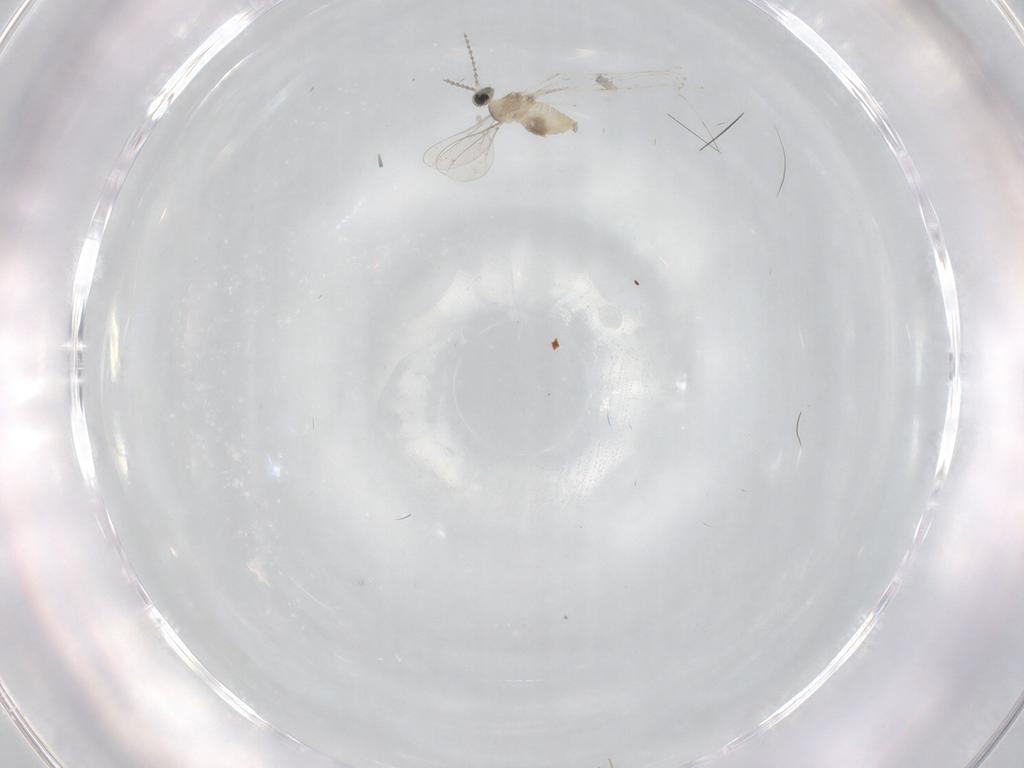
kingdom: Animalia
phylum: Arthropoda
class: Insecta
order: Diptera
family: Cecidomyiidae
